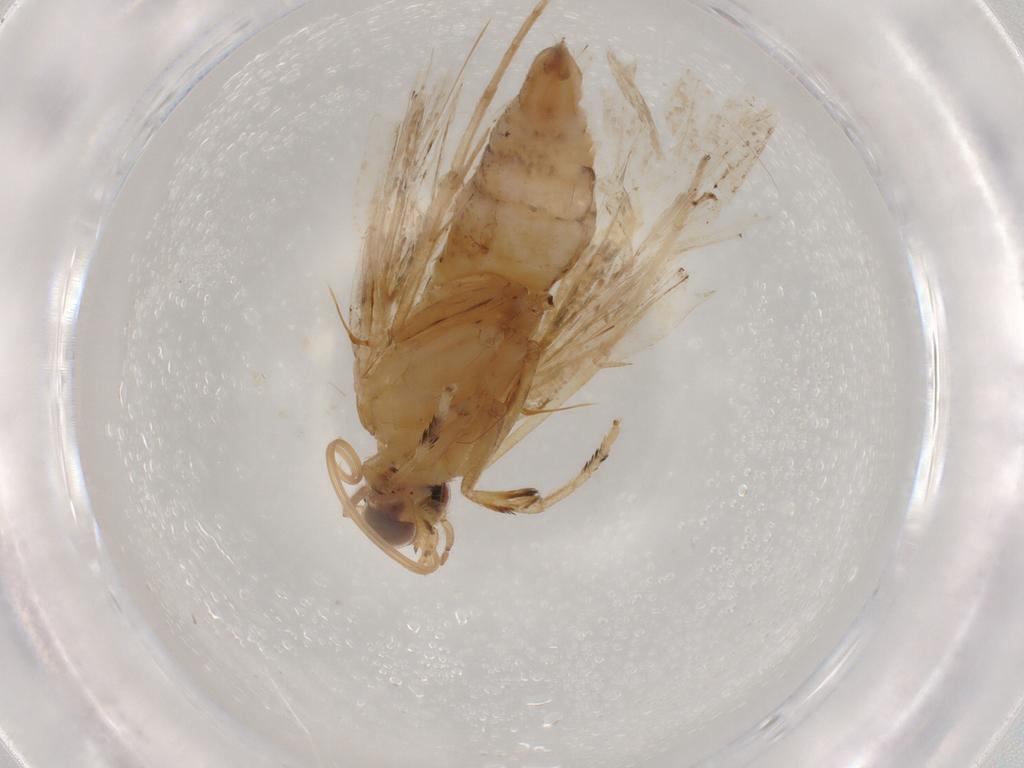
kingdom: Animalia
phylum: Arthropoda
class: Insecta
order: Lepidoptera
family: Crambidae
